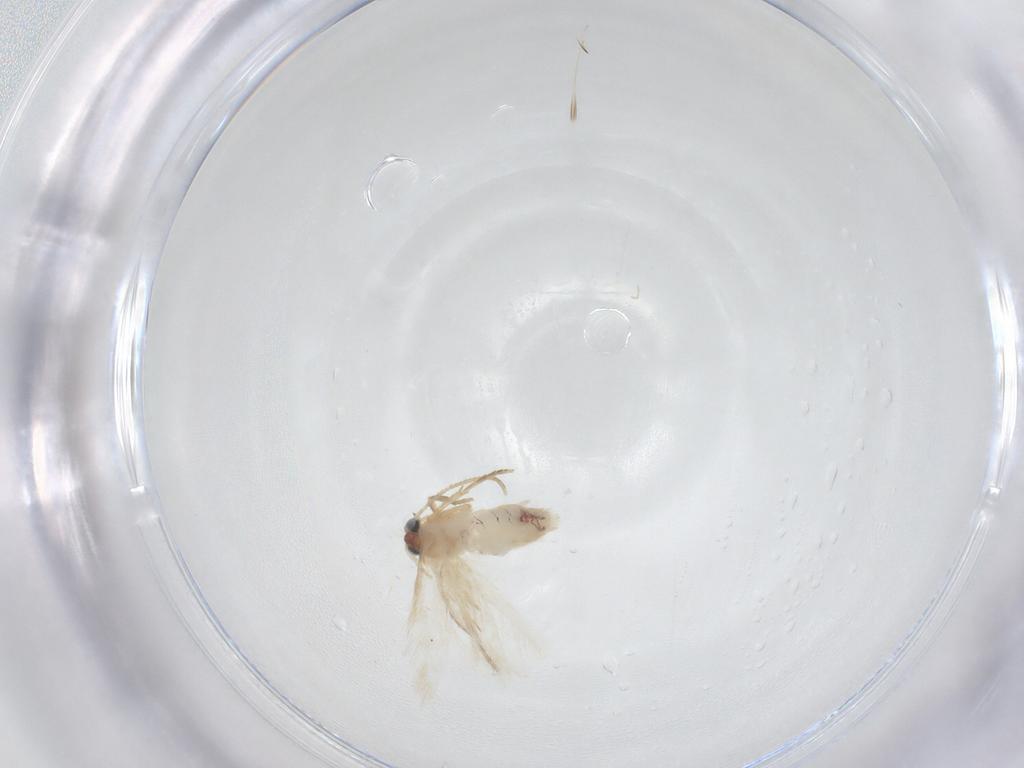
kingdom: Animalia
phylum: Arthropoda
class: Insecta
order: Lepidoptera
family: Nepticulidae
